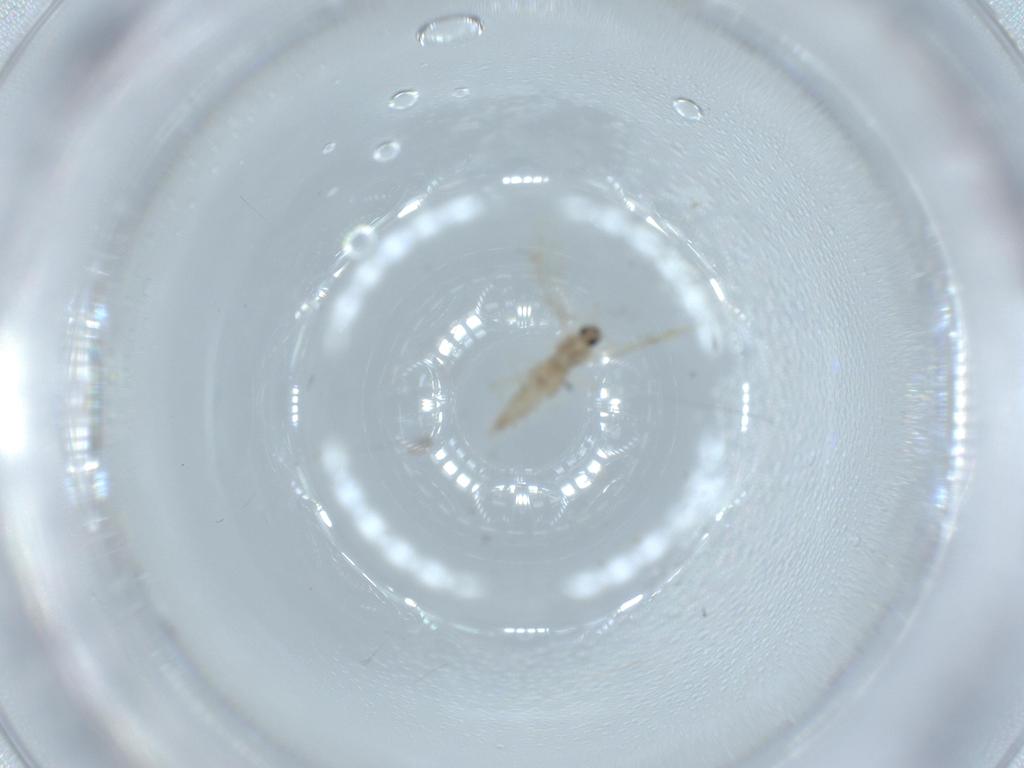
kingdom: Animalia
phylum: Arthropoda
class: Insecta
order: Diptera
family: Cecidomyiidae
